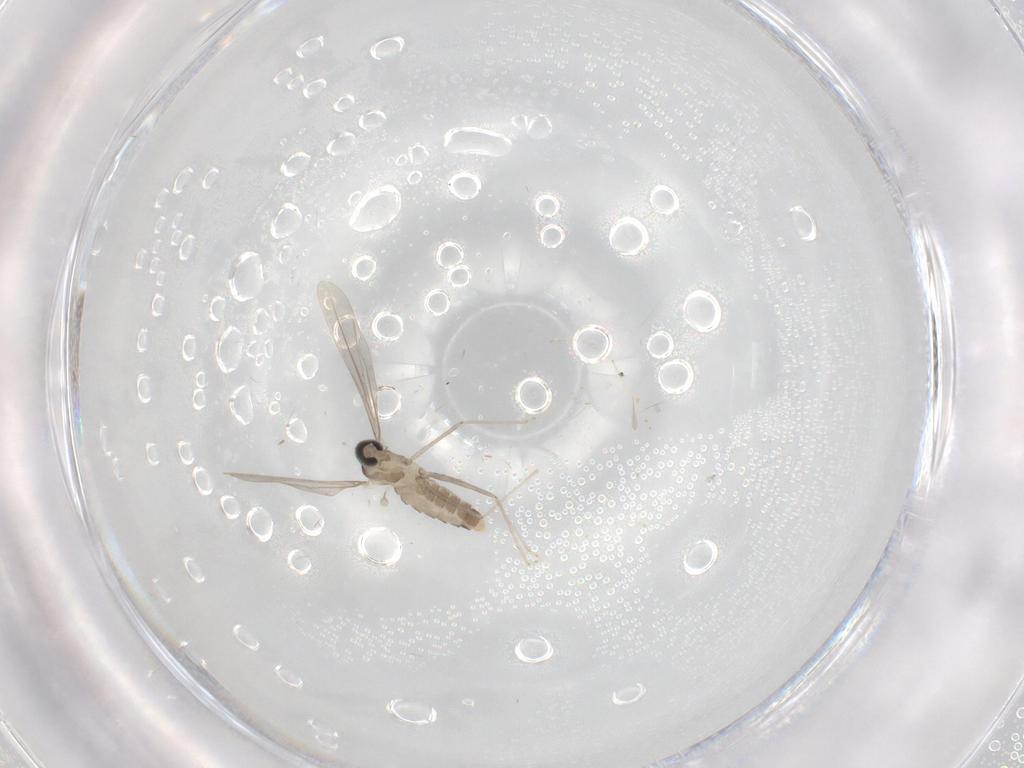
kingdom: Animalia
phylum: Arthropoda
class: Insecta
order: Diptera
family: Cecidomyiidae
